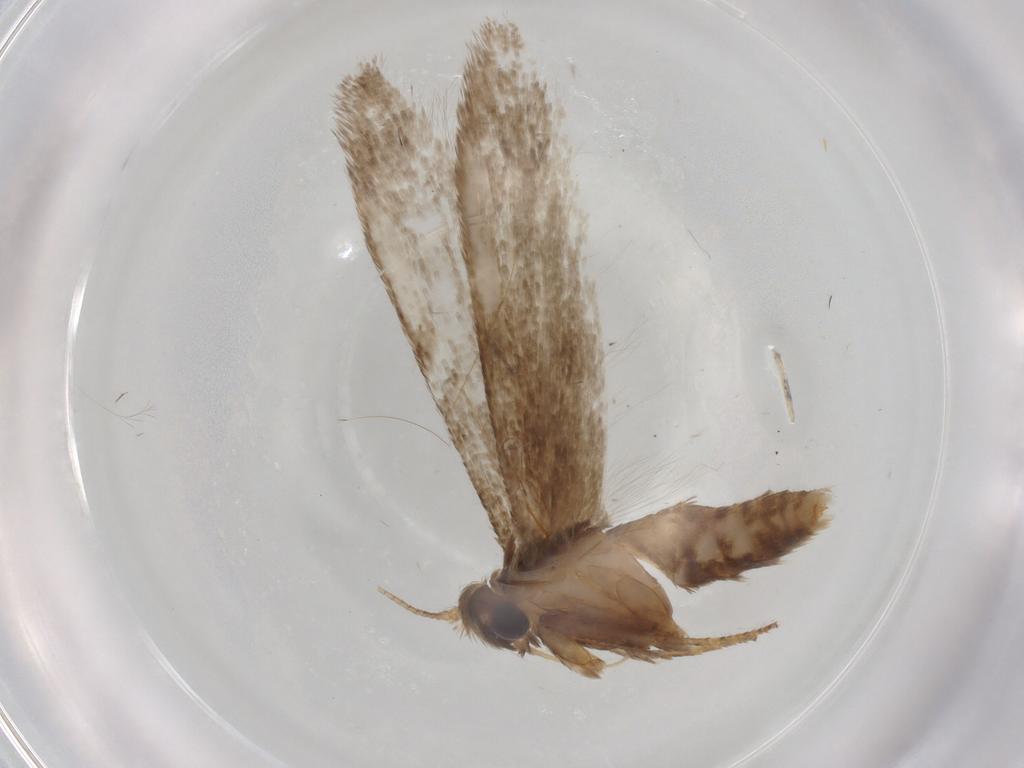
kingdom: Animalia
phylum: Arthropoda
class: Insecta
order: Lepidoptera
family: Blastobasidae
